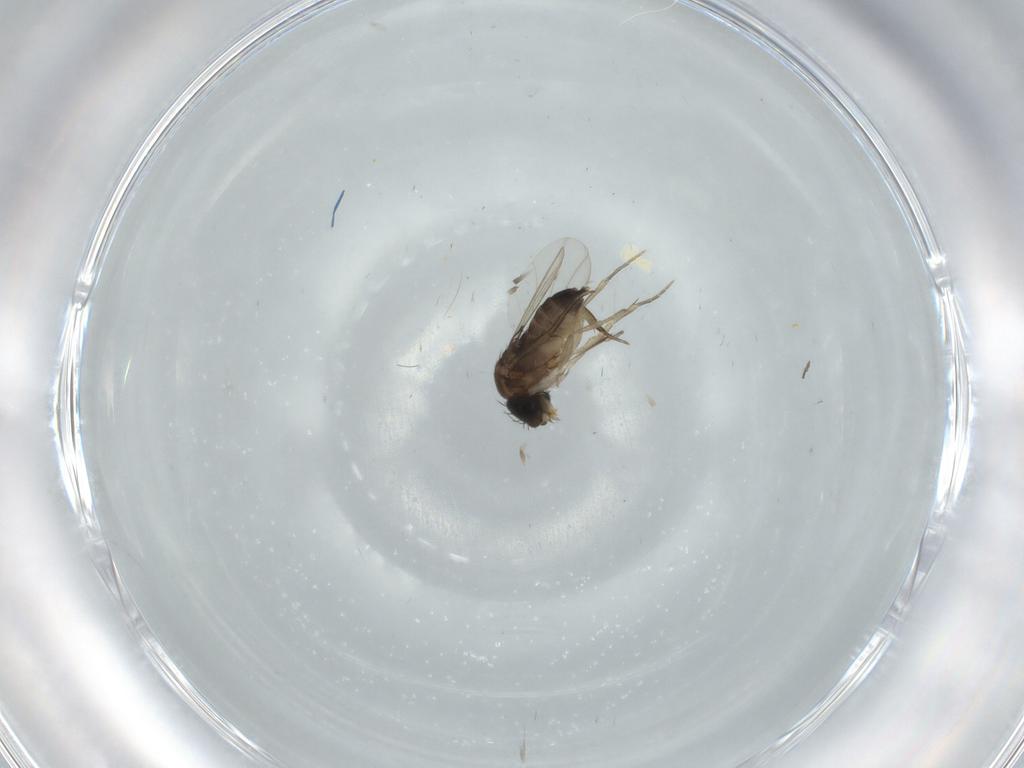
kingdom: Animalia
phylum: Arthropoda
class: Insecta
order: Diptera
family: Phoridae
